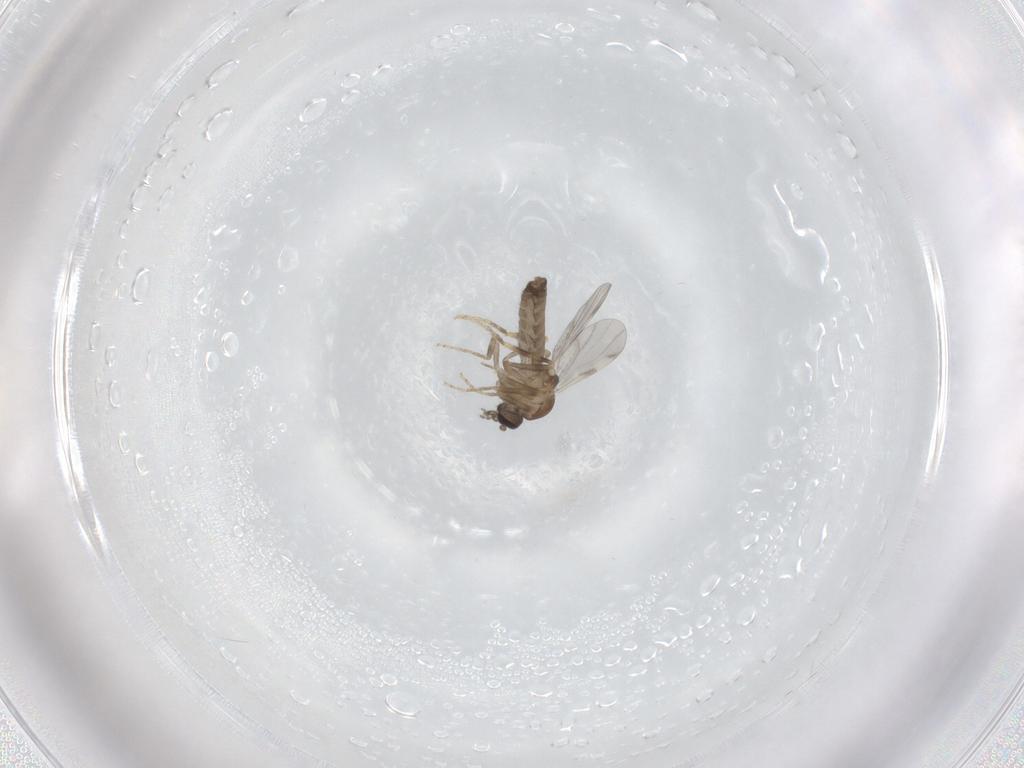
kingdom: Animalia
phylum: Arthropoda
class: Insecta
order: Diptera
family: Ceratopogonidae
